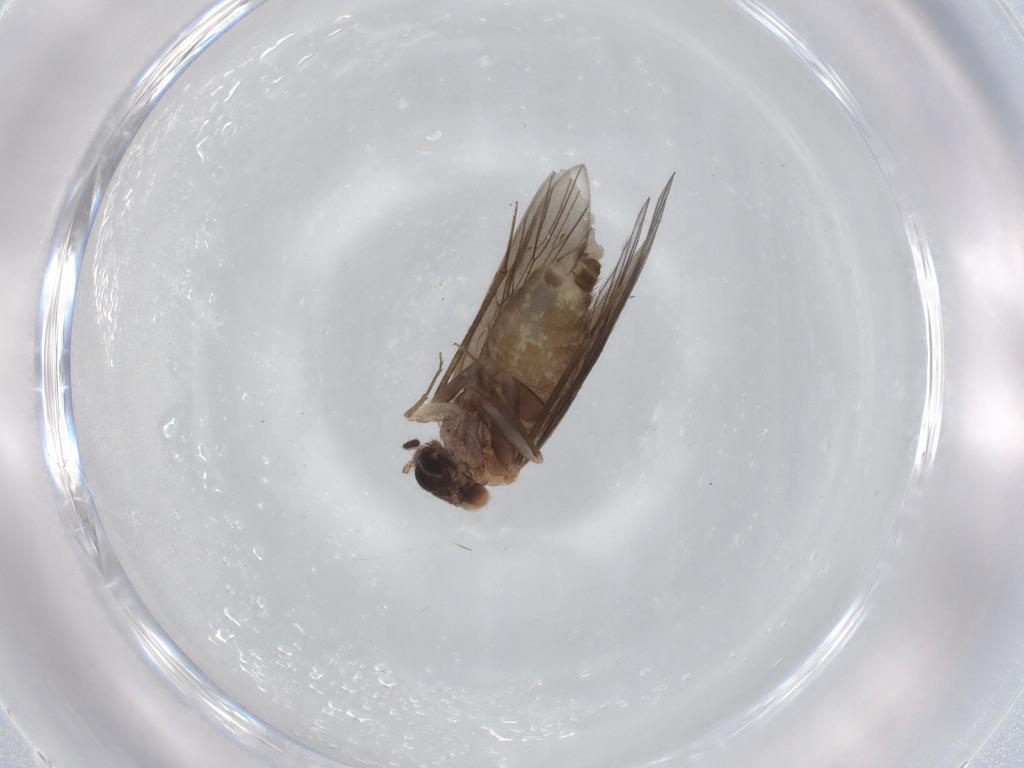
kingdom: Animalia
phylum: Arthropoda
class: Insecta
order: Psocodea
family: Lepidopsocidae
